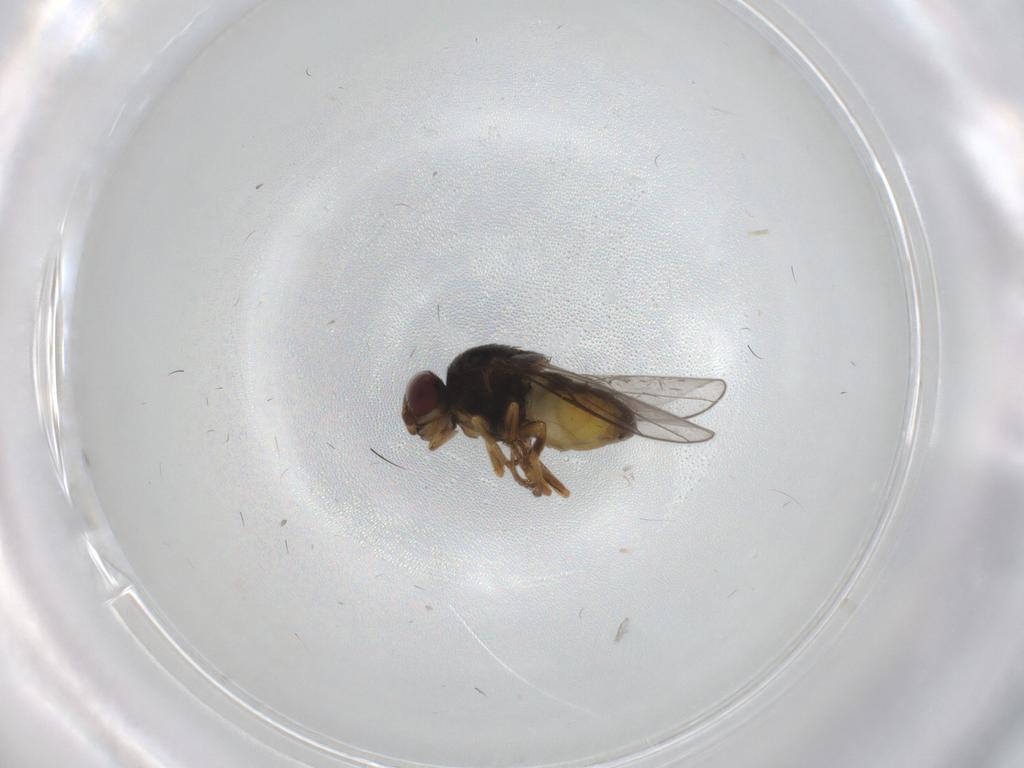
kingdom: Animalia
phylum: Arthropoda
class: Insecta
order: Diptera
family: Chloropidae
